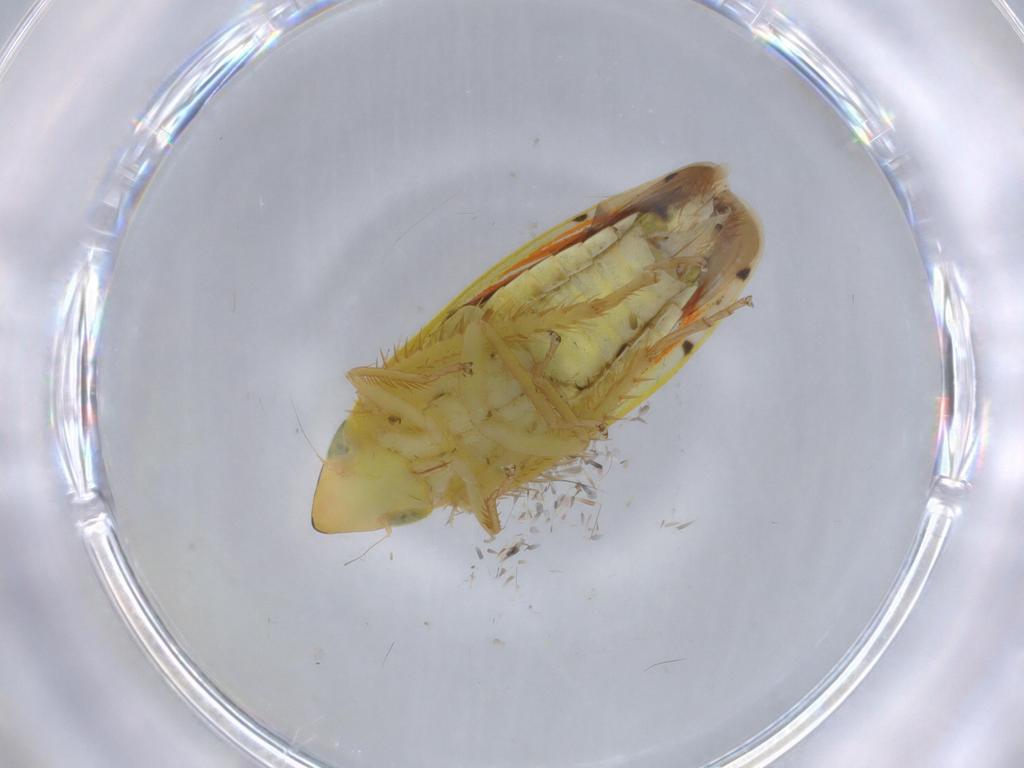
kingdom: Animalia
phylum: Arthropoda
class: Insecta
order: Hemiptera
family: Cicadellidae
